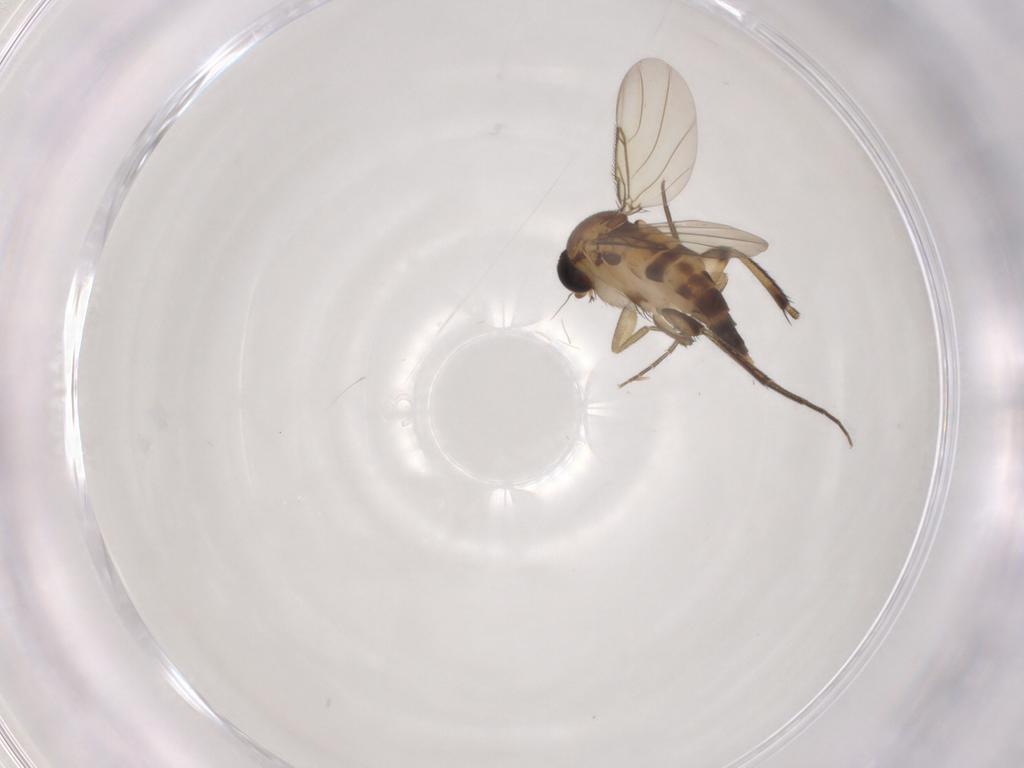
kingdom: Animalia
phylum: Arthropoda
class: Insecta
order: Diptera
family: Phoridae
